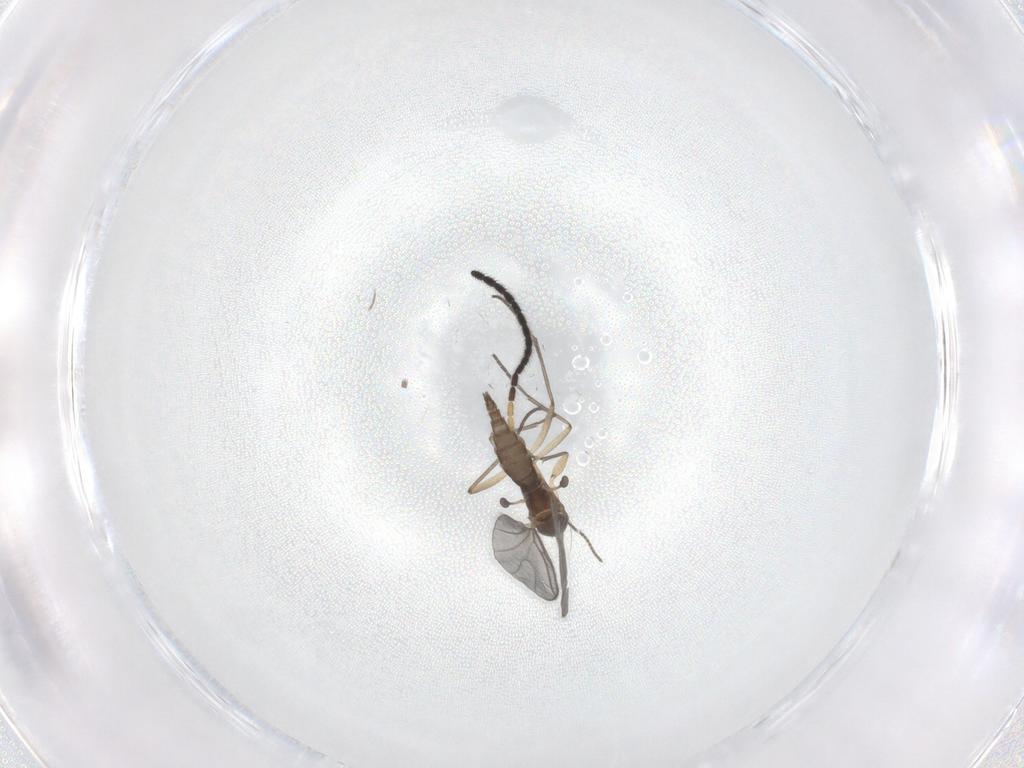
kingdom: Animalia
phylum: Arthropoda
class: Insecta
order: Diptera
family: Sciaridae
